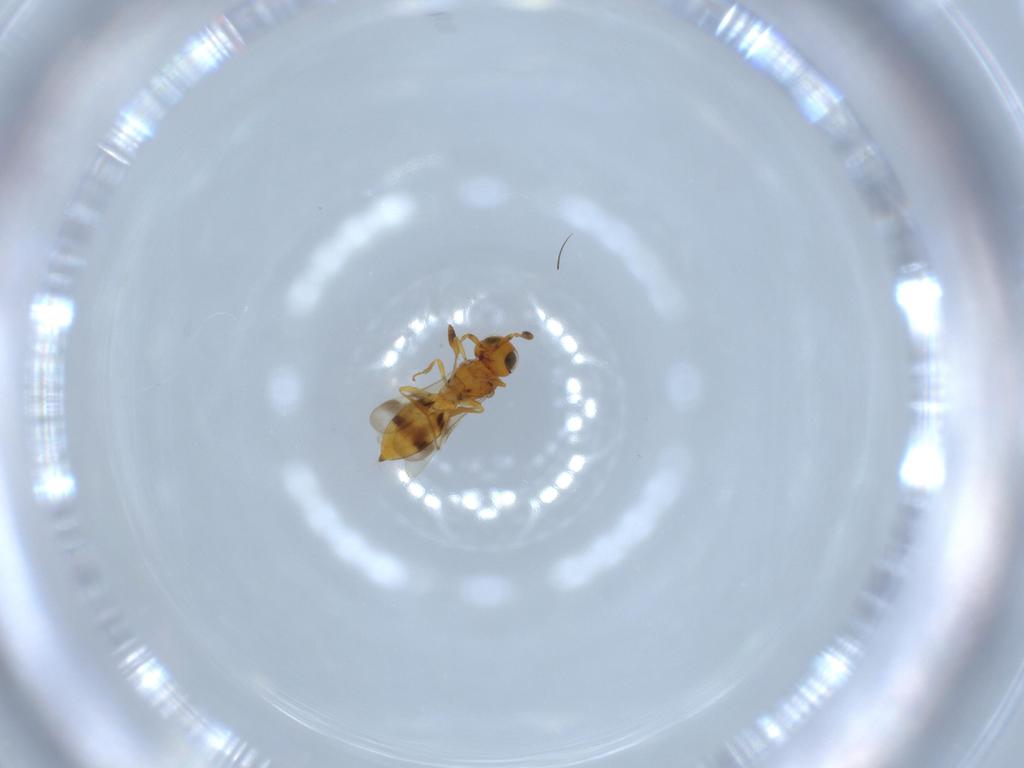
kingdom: Animalia
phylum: Arthropoda
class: Insecta
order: Hymenoptera
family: Scelionidae
